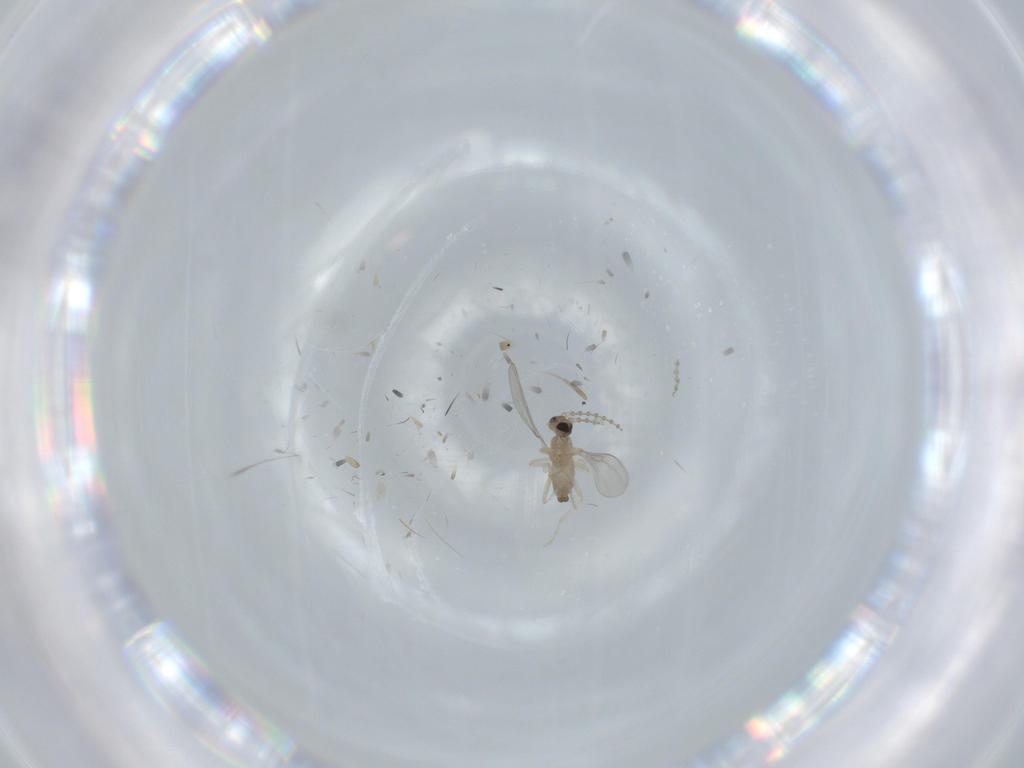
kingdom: Animalia
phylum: Arthropoda
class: Insecta
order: Diptera
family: Cecidomyiidae
